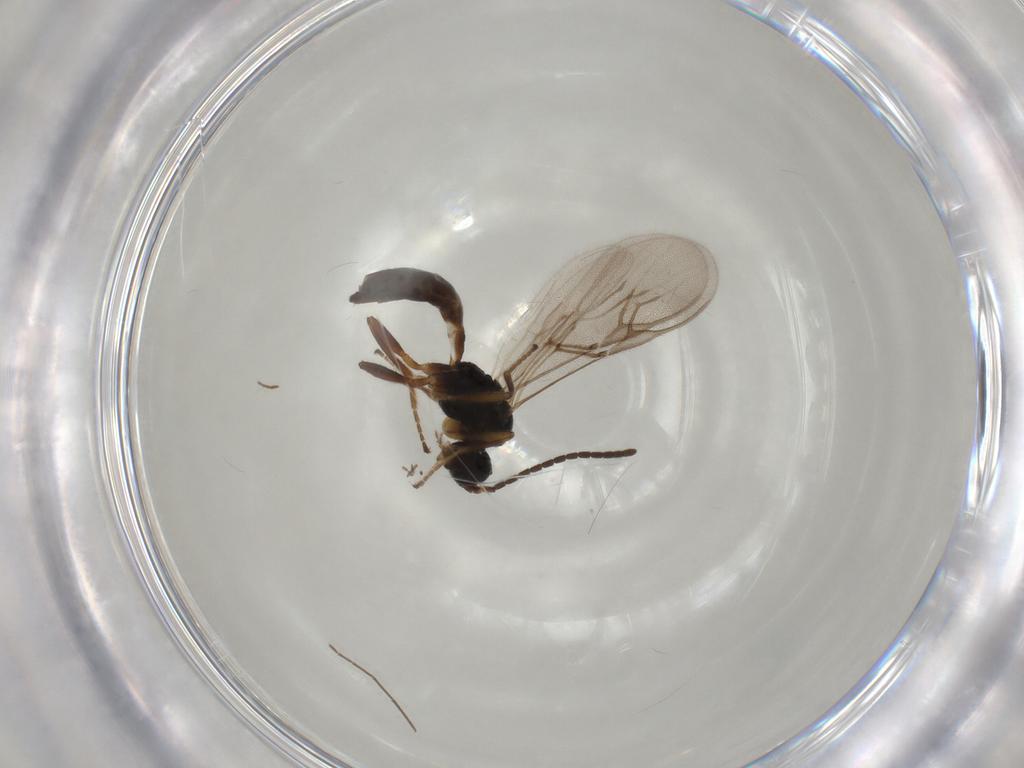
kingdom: Animalia
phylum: Arthropoda
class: Insecta
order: Hymenoptera
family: Braconidae
